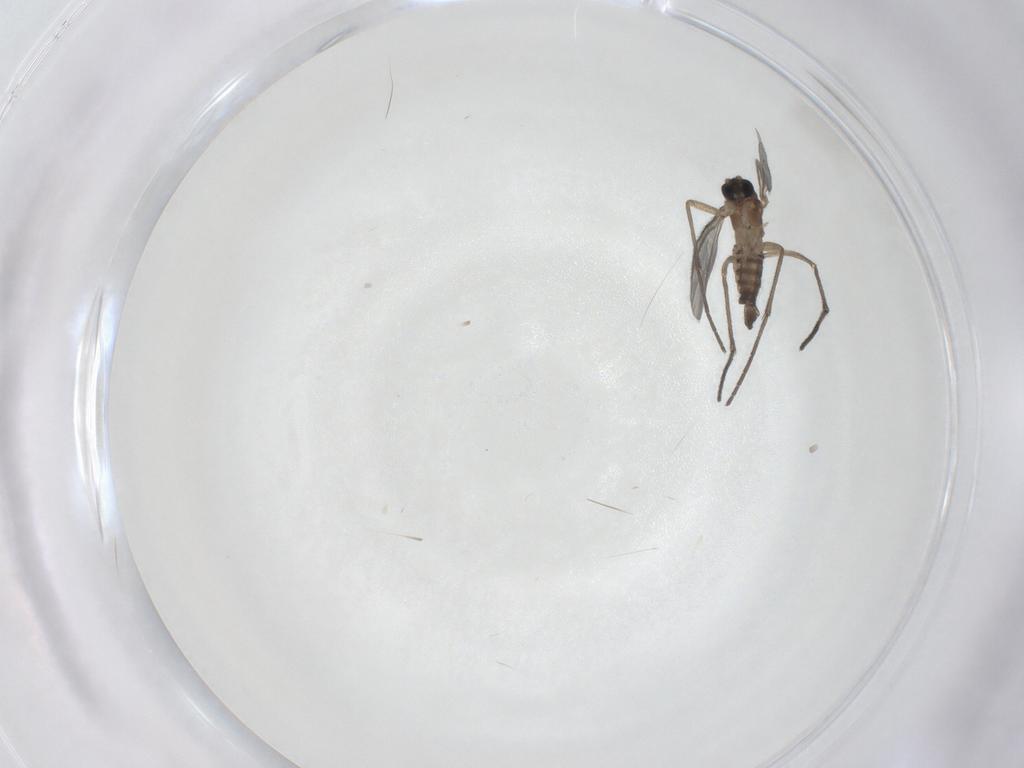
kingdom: Animalia
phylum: Arthropoda
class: Insecta
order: Diptera
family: Sciaridae
